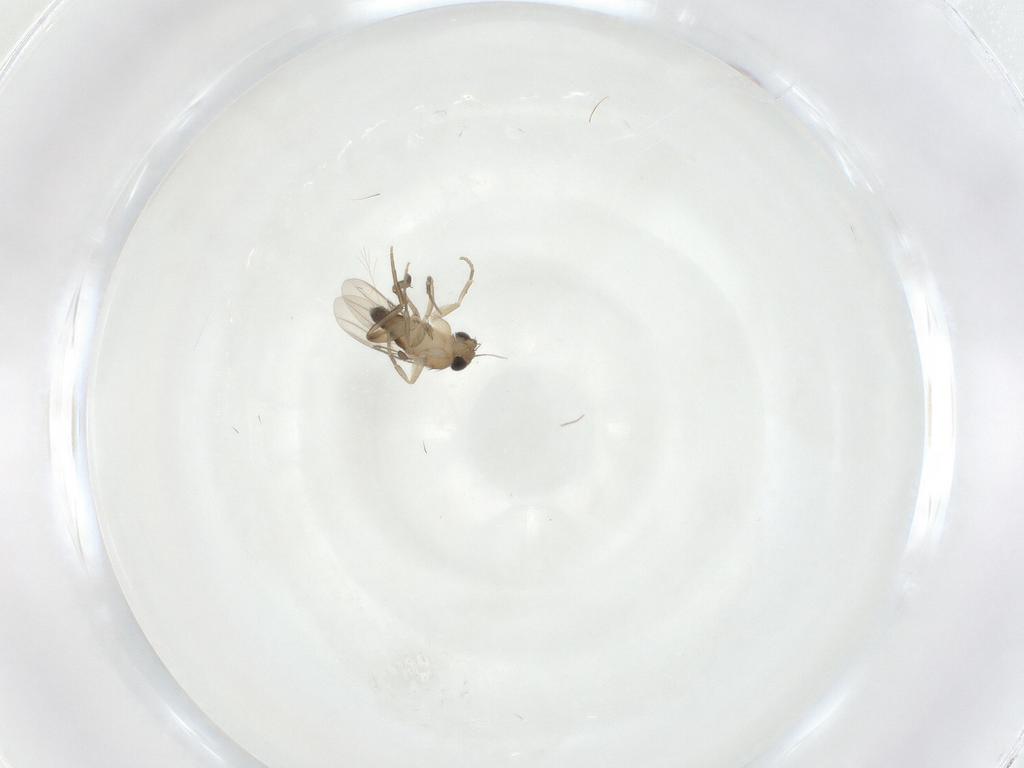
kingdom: Animalia
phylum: Arthropoda
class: Insecta
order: Diptera
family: Phoridae
